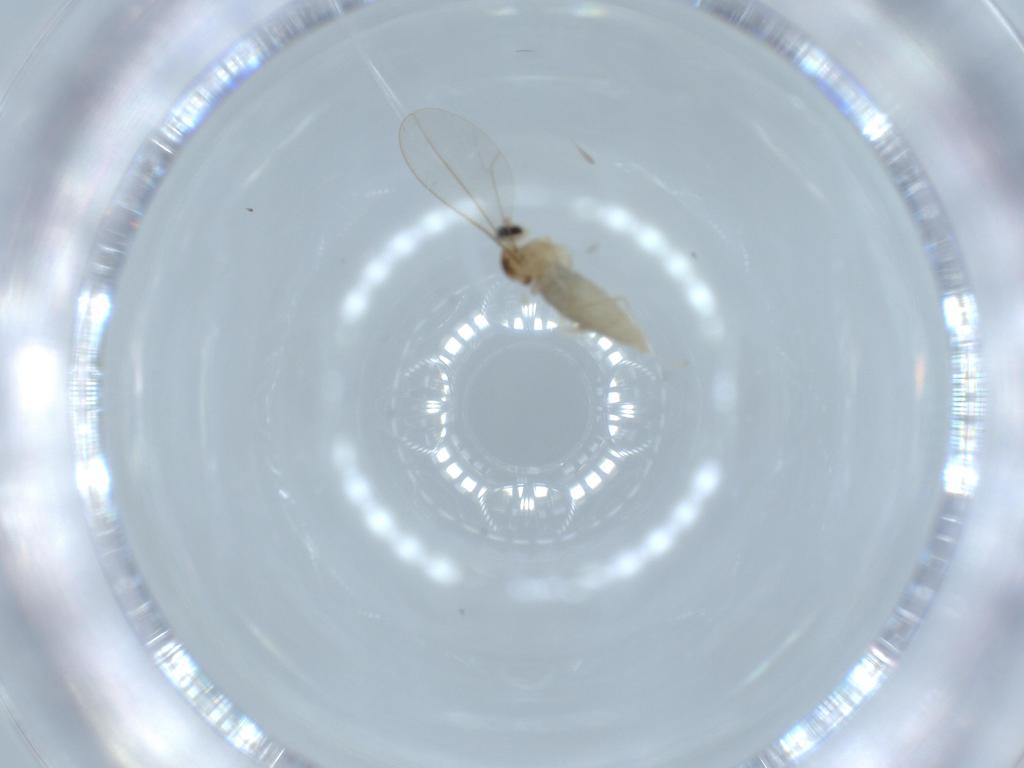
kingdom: Animalia
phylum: Arthropoda
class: Insecta
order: Diptera
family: Cecidomyiidae
